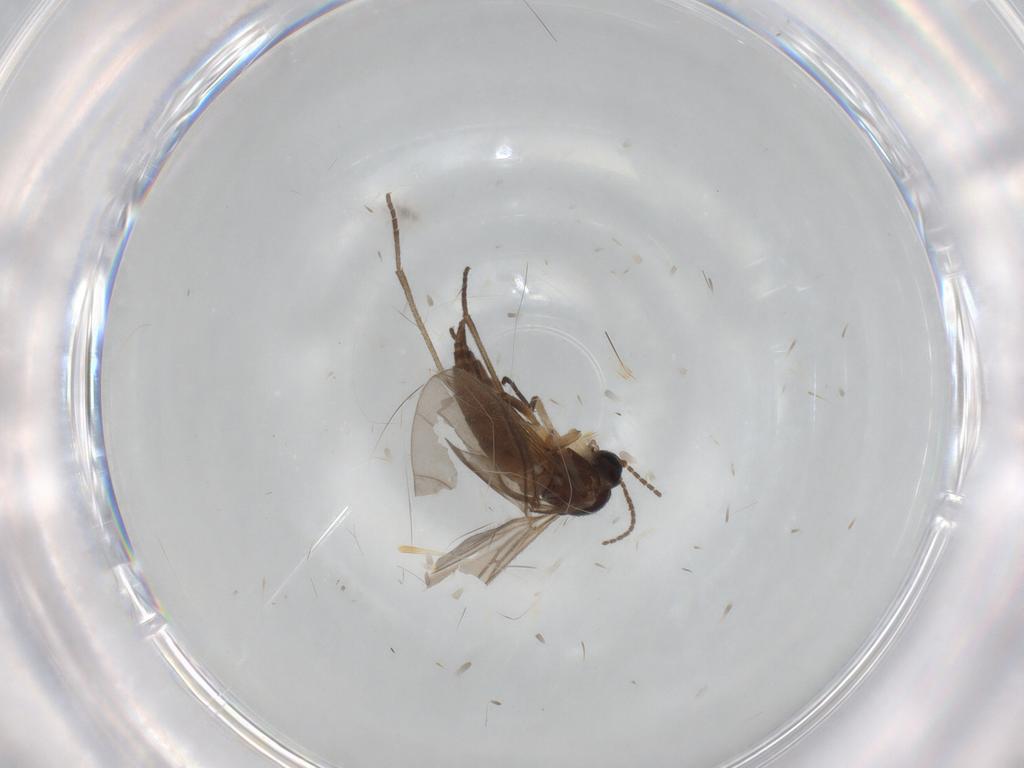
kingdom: Animalia
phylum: Arthropoda
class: Insecta
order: Diptera
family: Sciaridae
